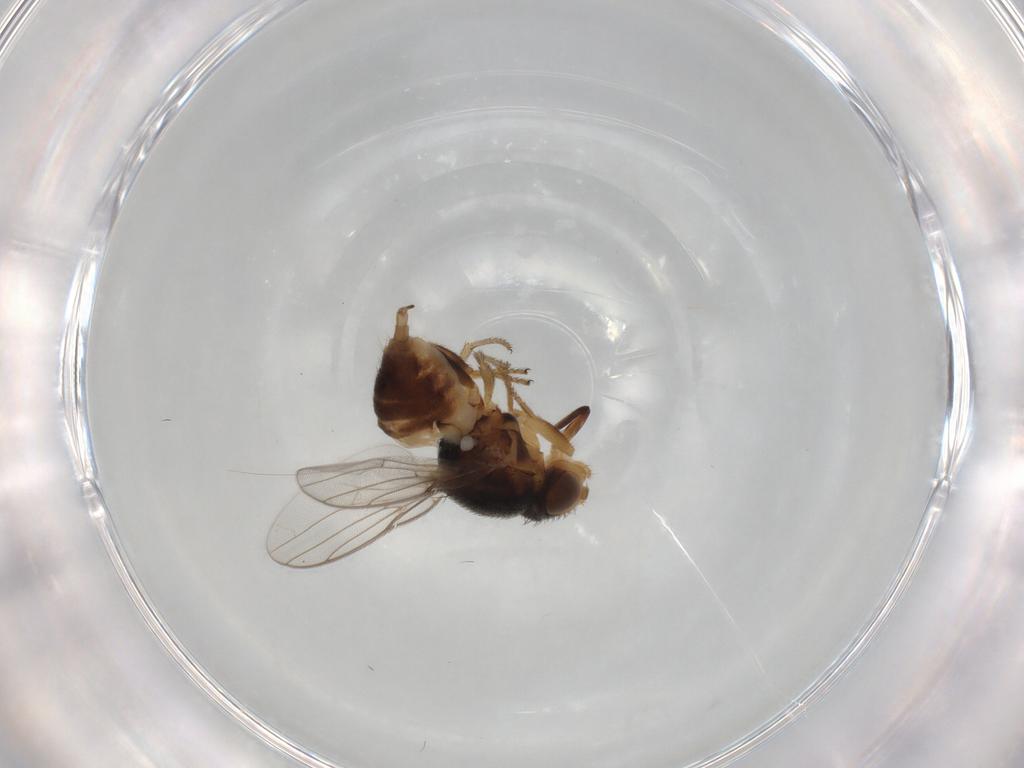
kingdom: Animalia
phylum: Arthropoda
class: Insecta
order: Diptera
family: Chloropidae
